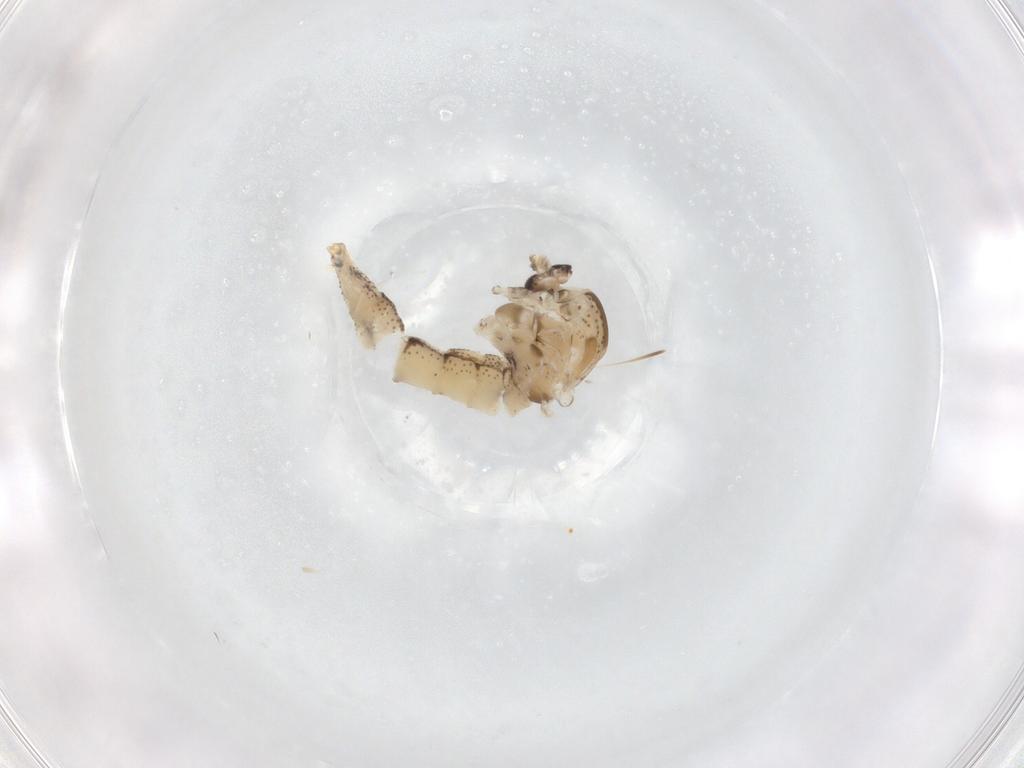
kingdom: Animalia
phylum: Arthropoda
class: Insecta
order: Diptera
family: Chaoboridae
